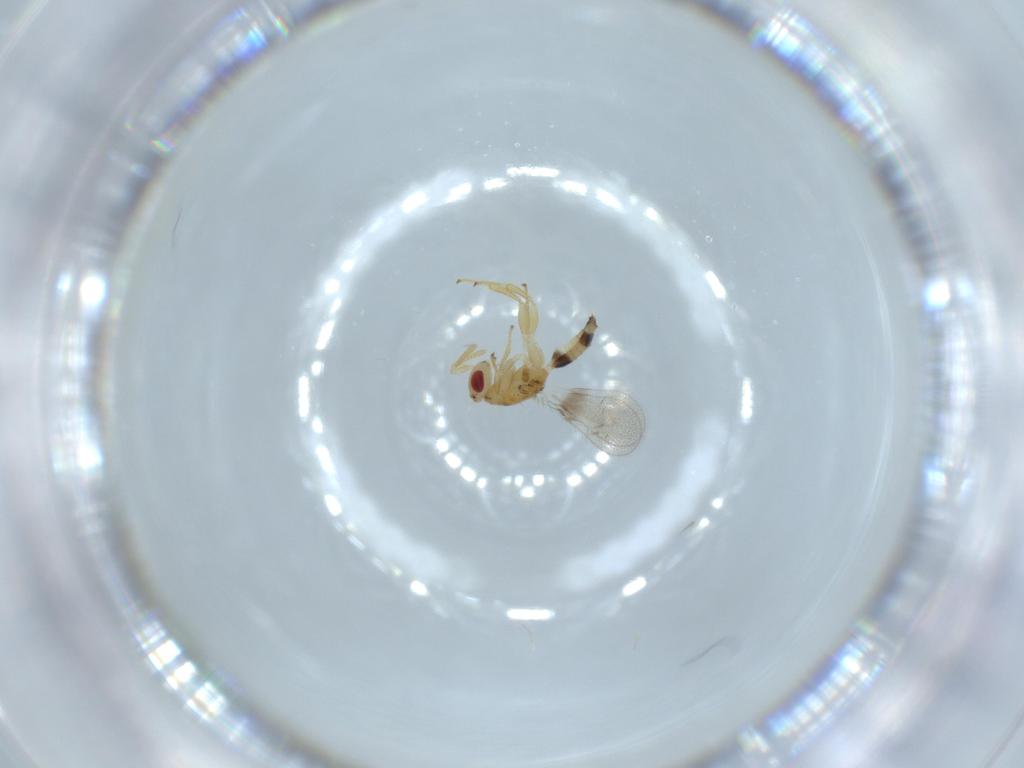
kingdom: Animalia
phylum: Arthropoda
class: Insecta
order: Hymenoptera
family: Torymidae
